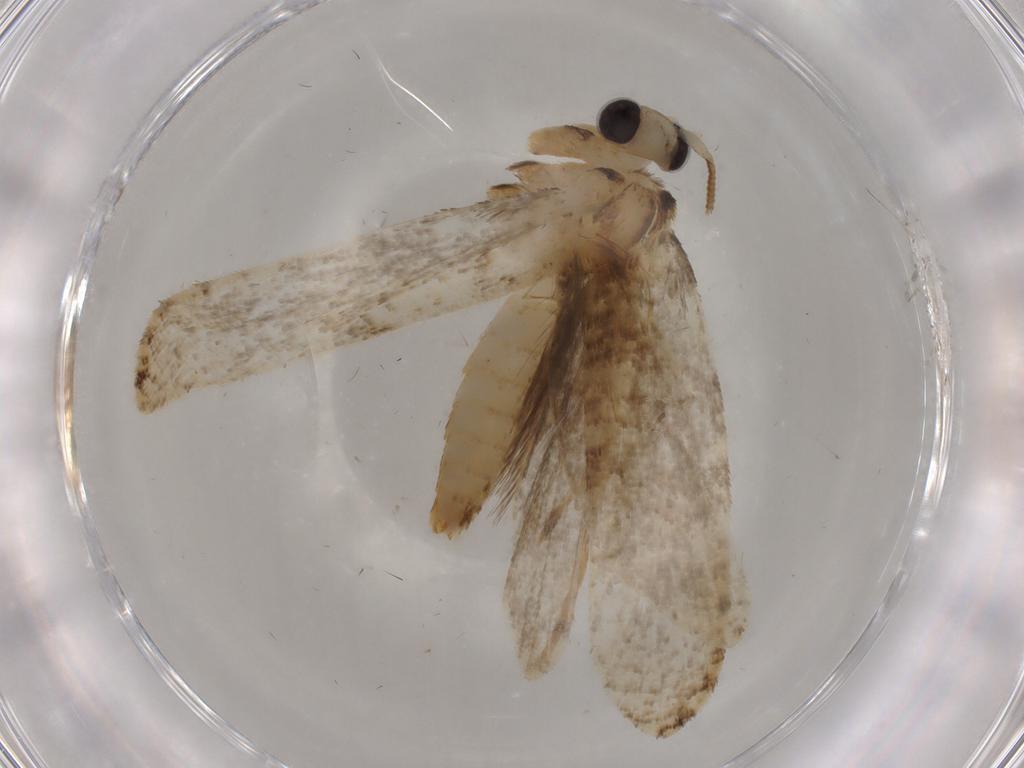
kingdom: Animalia
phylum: Arthropoda
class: Insecta
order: Lepidoptera
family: Tineidae
